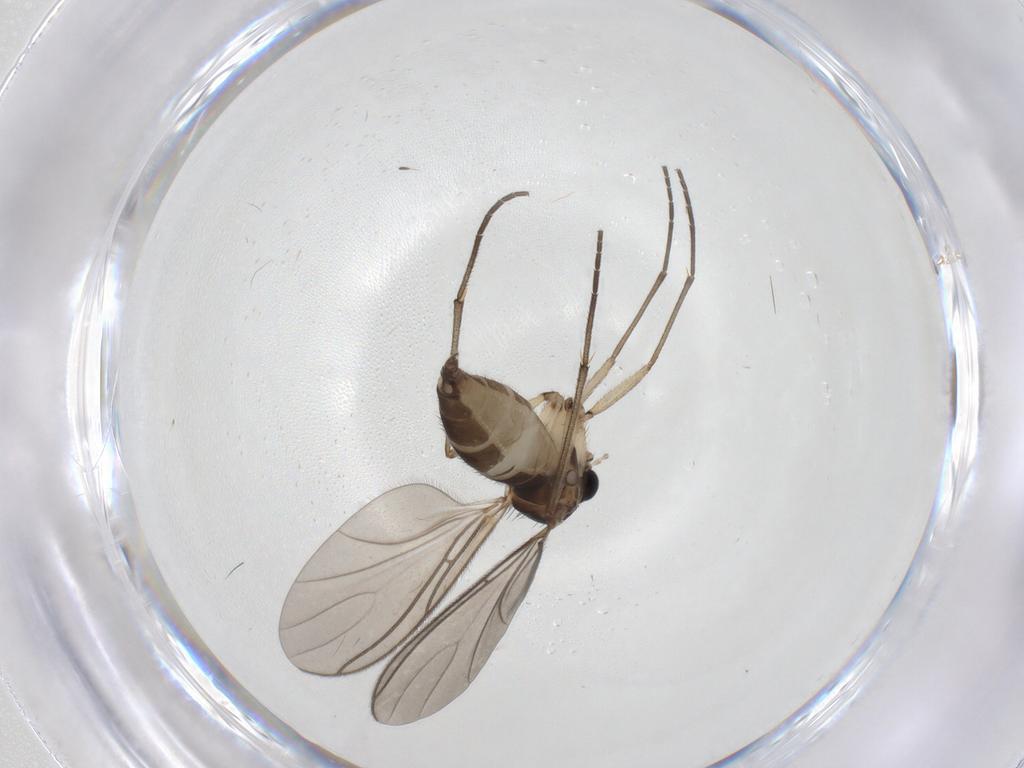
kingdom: Animalia
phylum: Arthropoda
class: Insecta
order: Diptera
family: Sciaridae
